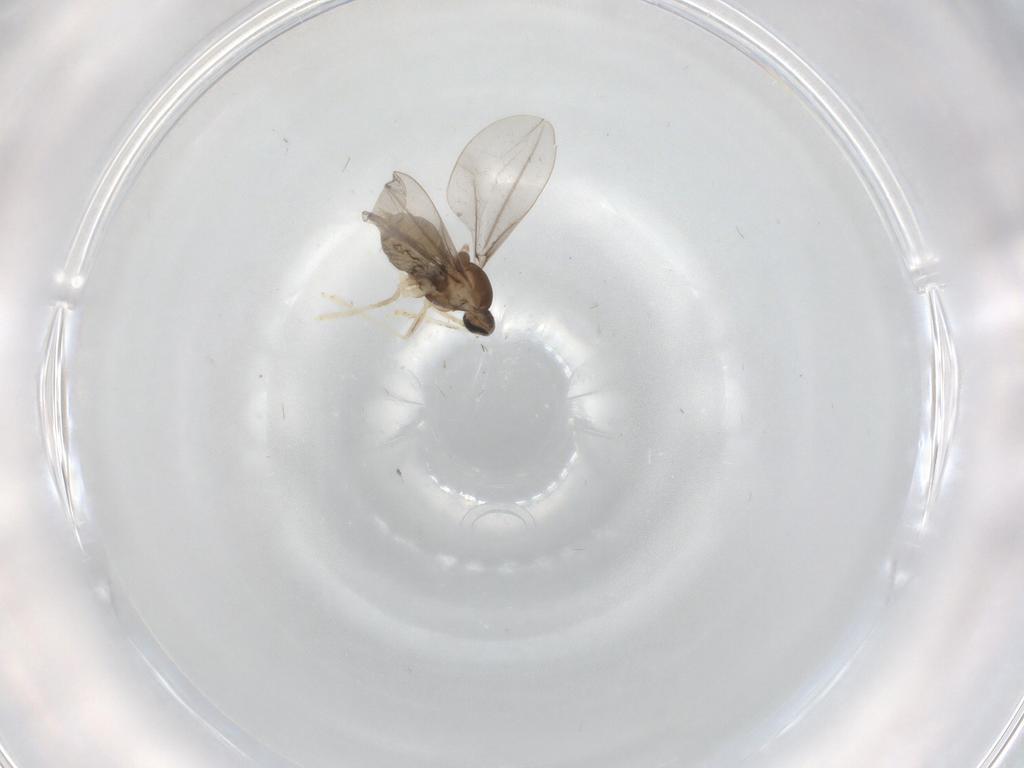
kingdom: Animalia
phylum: Arthropoda
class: Insecta
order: Diptera
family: Cecidomyiidae
